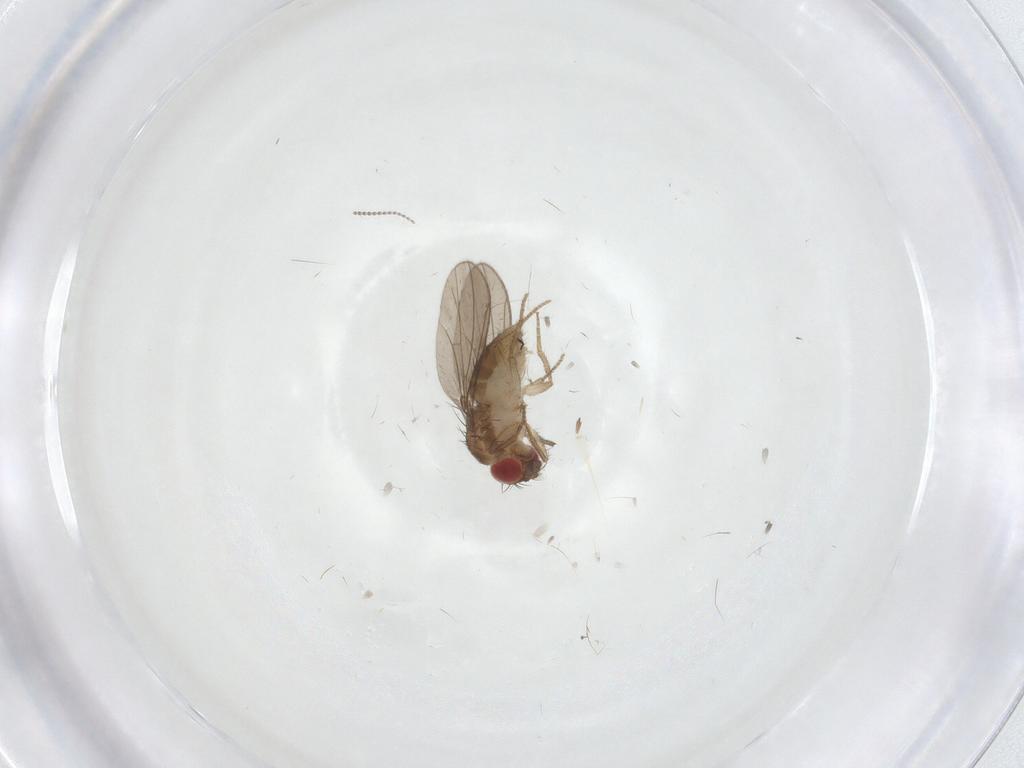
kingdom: Animalia
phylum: Arthropoda
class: Insecta
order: Diptera
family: Drosophilidae
